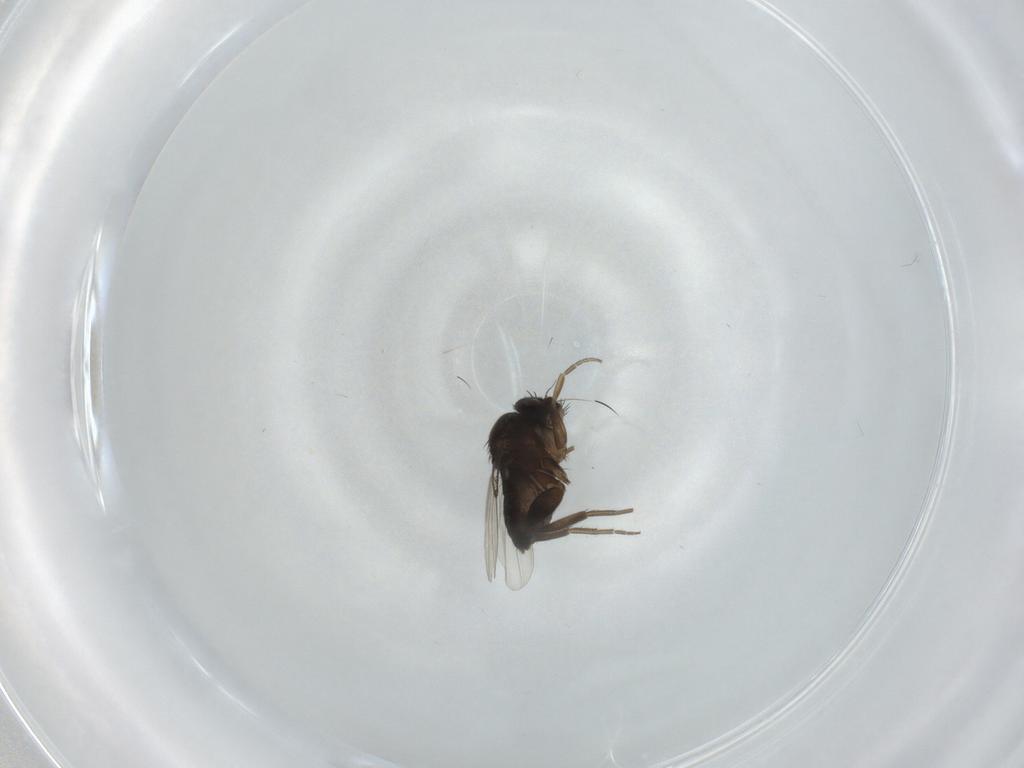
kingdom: Animalia
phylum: Arthropoda
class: Insecta
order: Diptera
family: Phoridae
